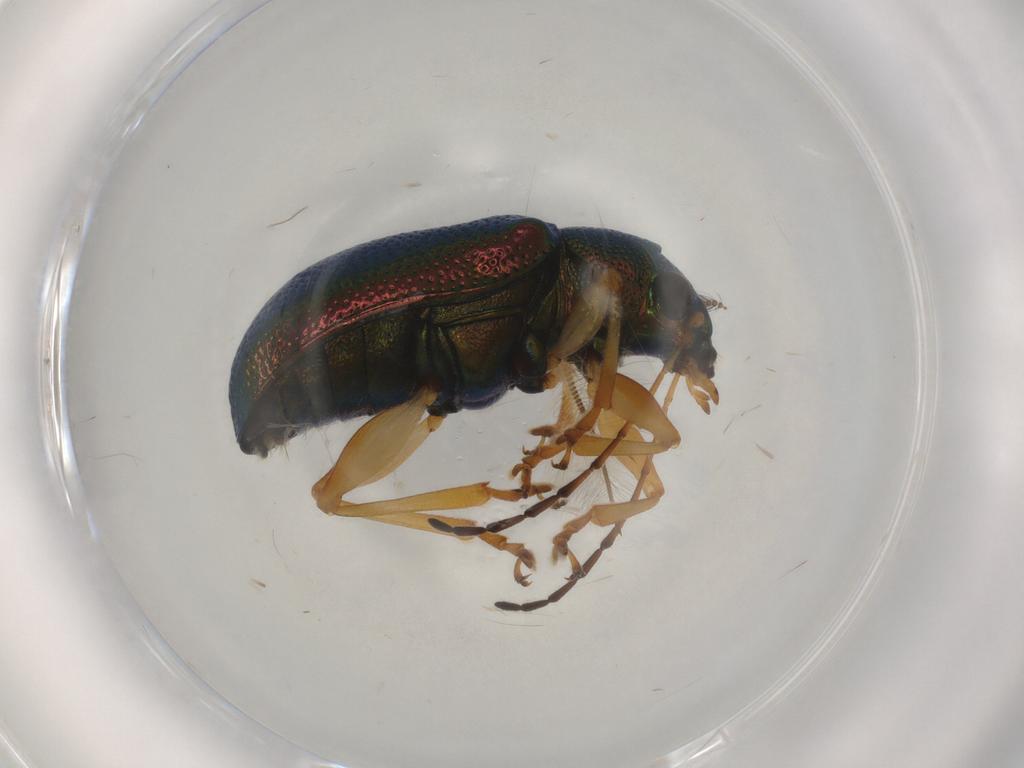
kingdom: Animalia
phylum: Arthropoda
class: Insecta
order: Coleoptera
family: Chrysomelidae
